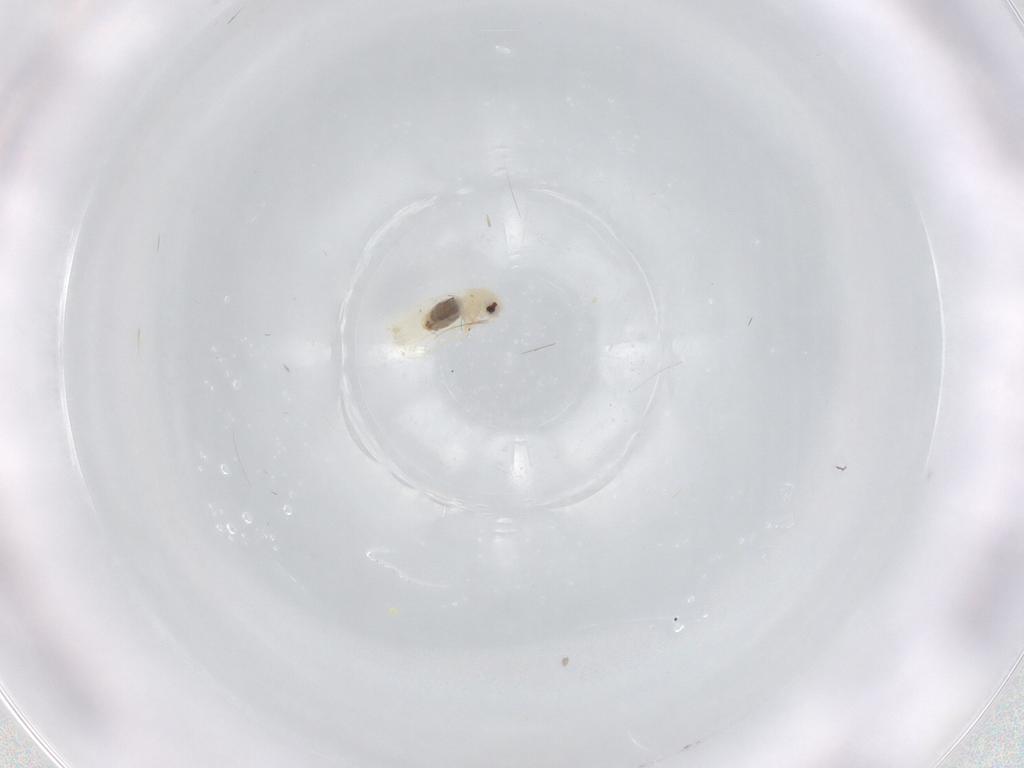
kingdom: Animalia
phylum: Arthropoda
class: Insecta
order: Hemiptera
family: Aleyrodidae
